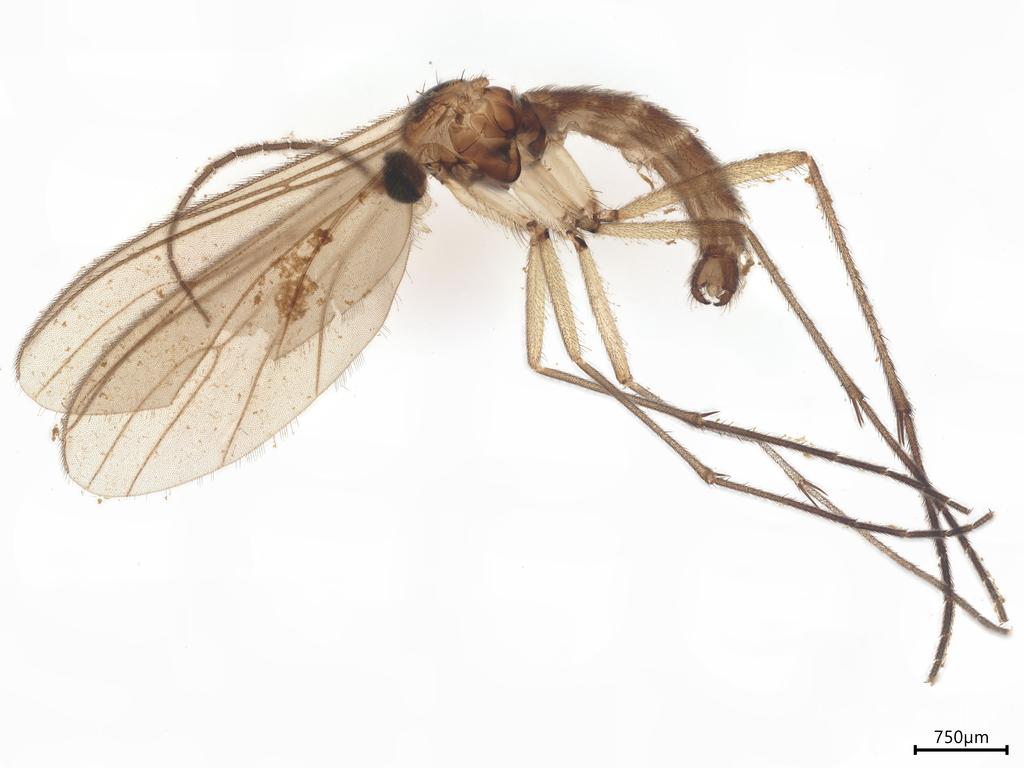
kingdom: Animalia
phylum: Arthropoda
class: Insecta
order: Diptera
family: Sciaridae
